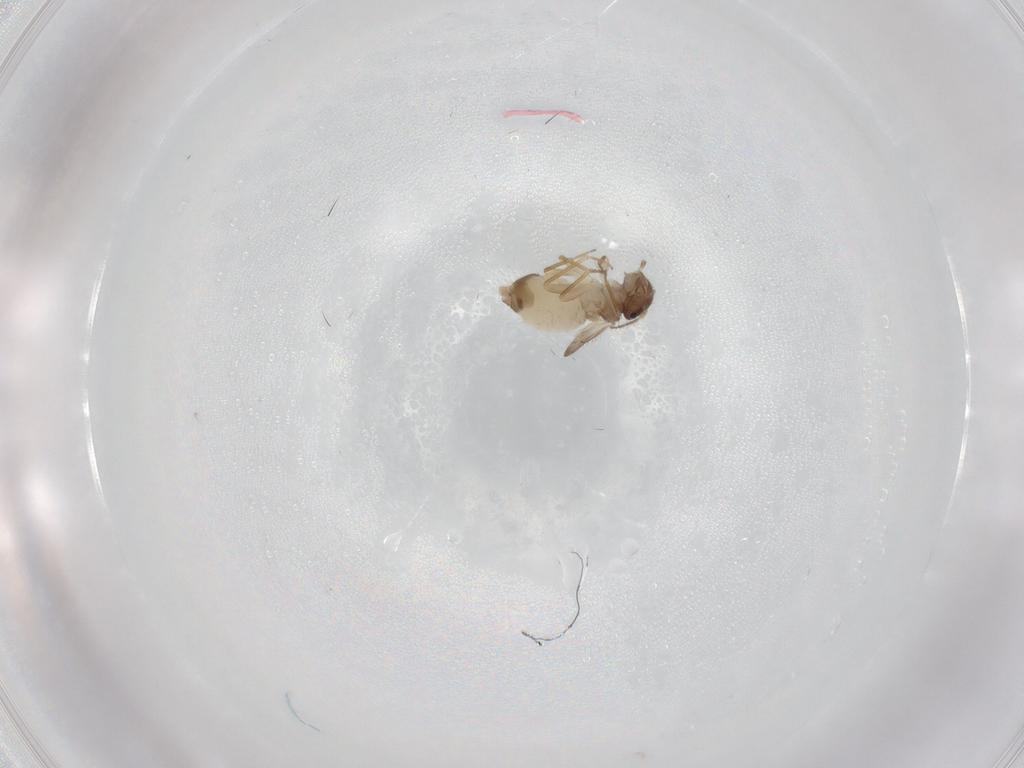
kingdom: Animalia
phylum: Arthropoda
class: Insecta
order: Psocodea
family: Peripsocidae
